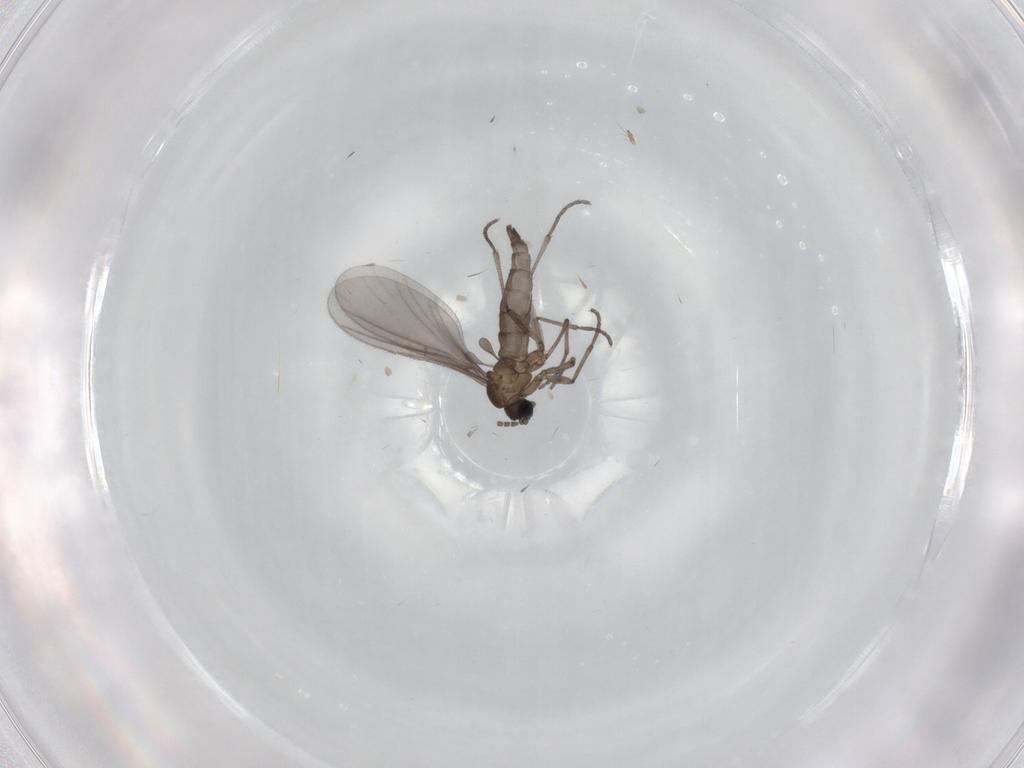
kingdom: Animalia
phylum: Arthropoda
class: Insecta
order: Diptera
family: Sciaridae
